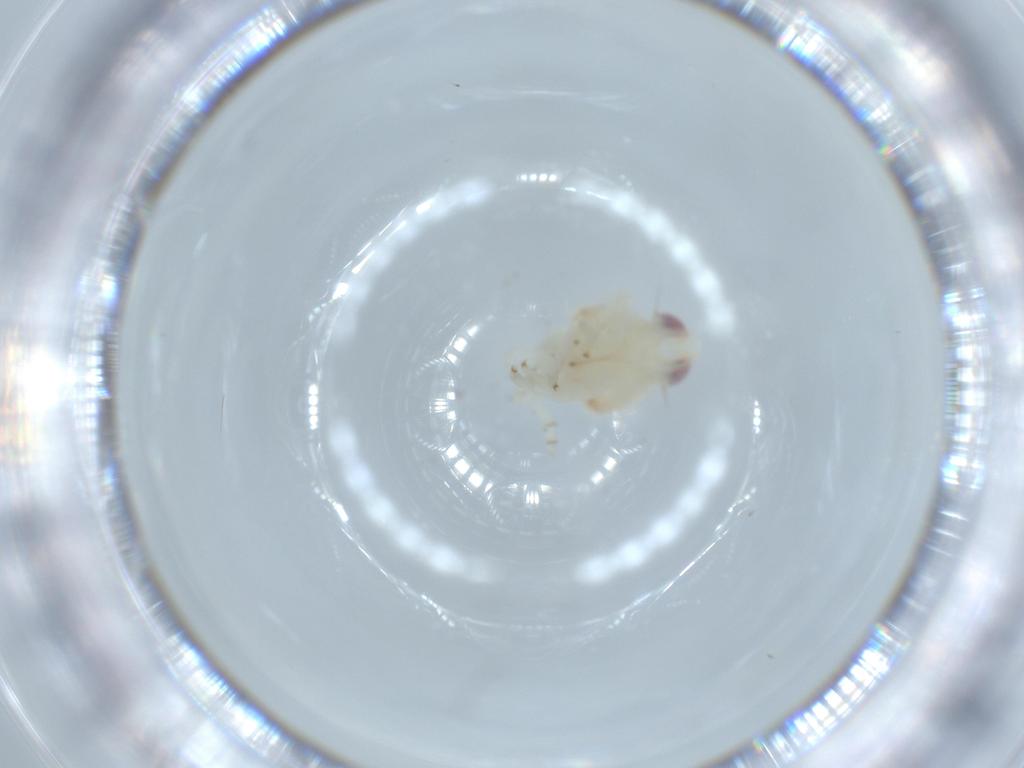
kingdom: Animalia
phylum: Arthropoda
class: Insecta
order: Hemiptera
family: Nogodinidae
